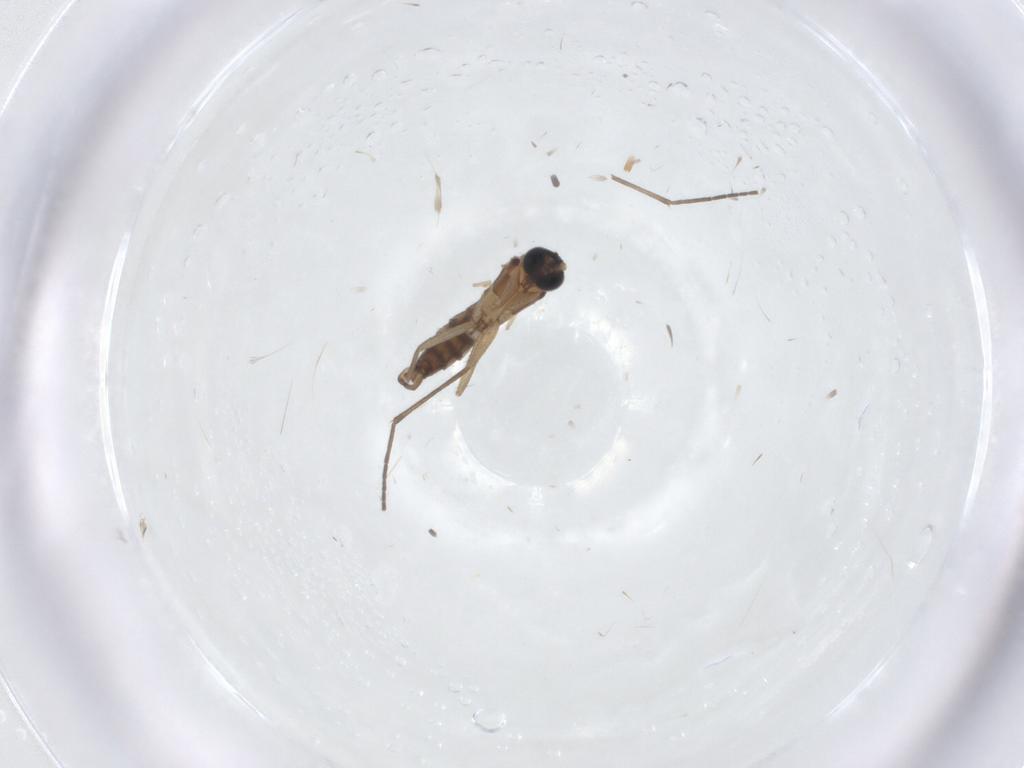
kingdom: Animalia
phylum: Arthropoda
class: Insecta
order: Diptera
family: Sciaridae
